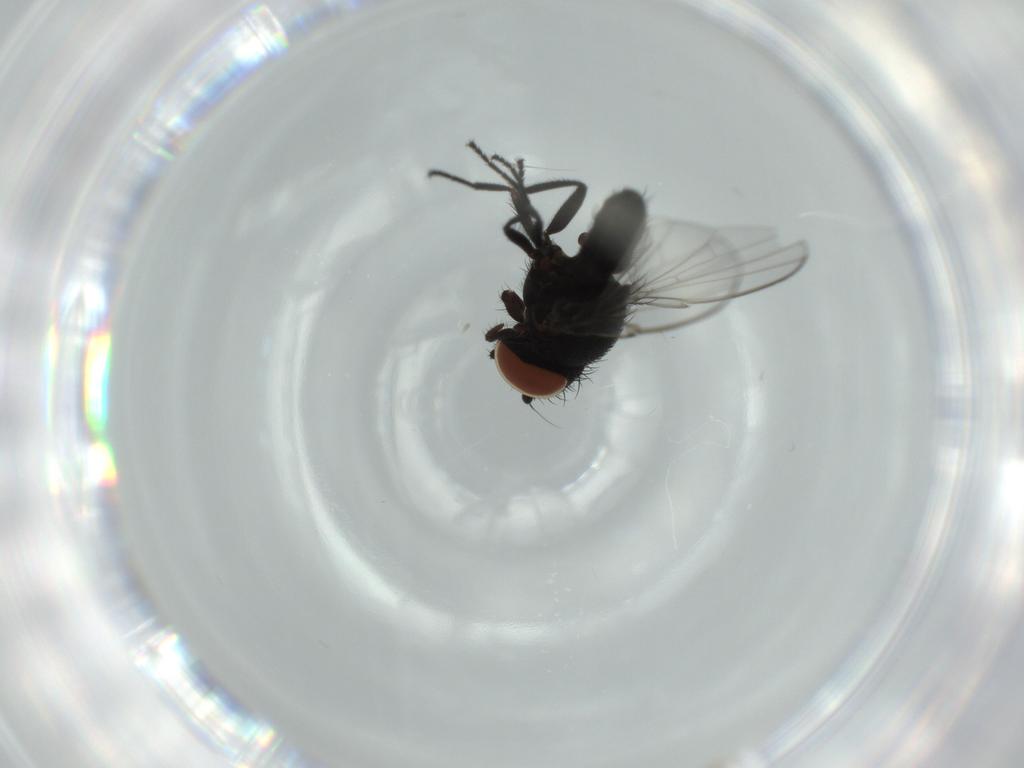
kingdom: Animalia
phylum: Arthropoda
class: Insecta
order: Diptera
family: Milichiidae
